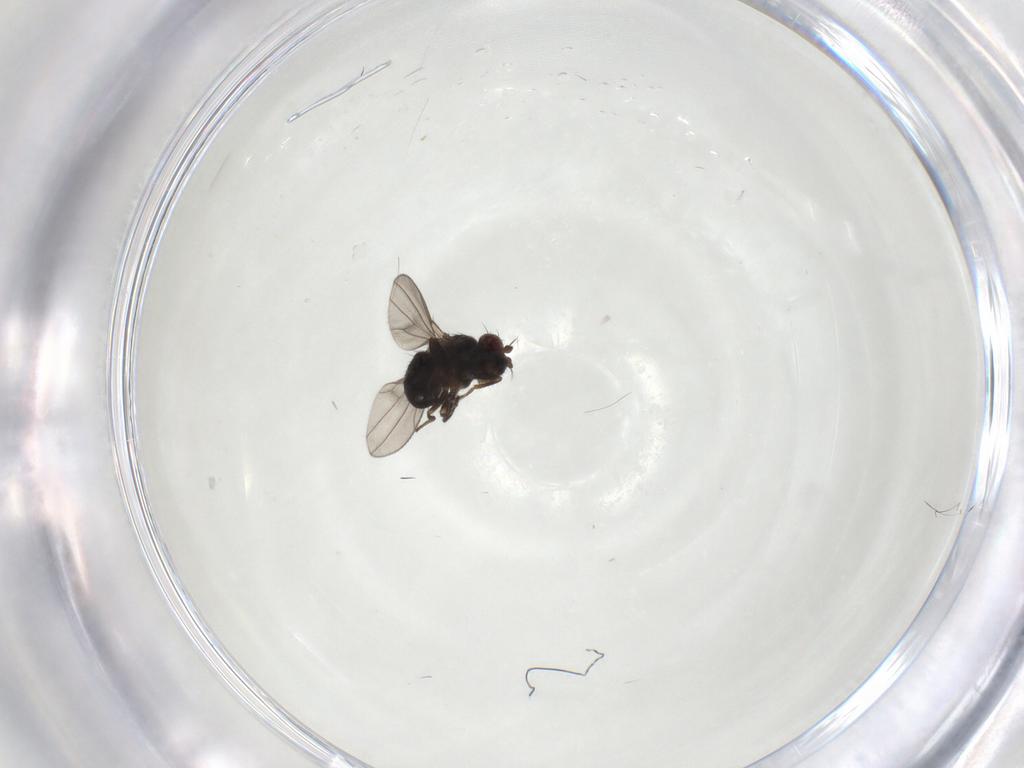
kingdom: Animalia
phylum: Arthropoda
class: Insecta
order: Diptera
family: Ephydridae
